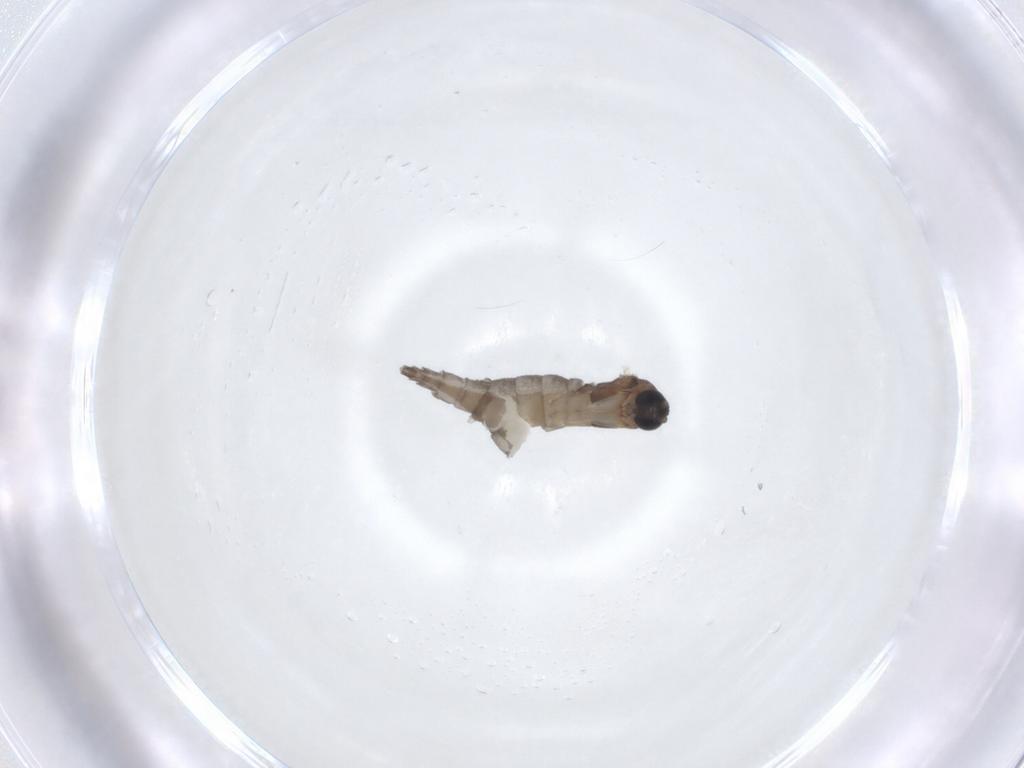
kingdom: Animalia
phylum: Arthropoda
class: Insecta
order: Diptera
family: Sciaridae
